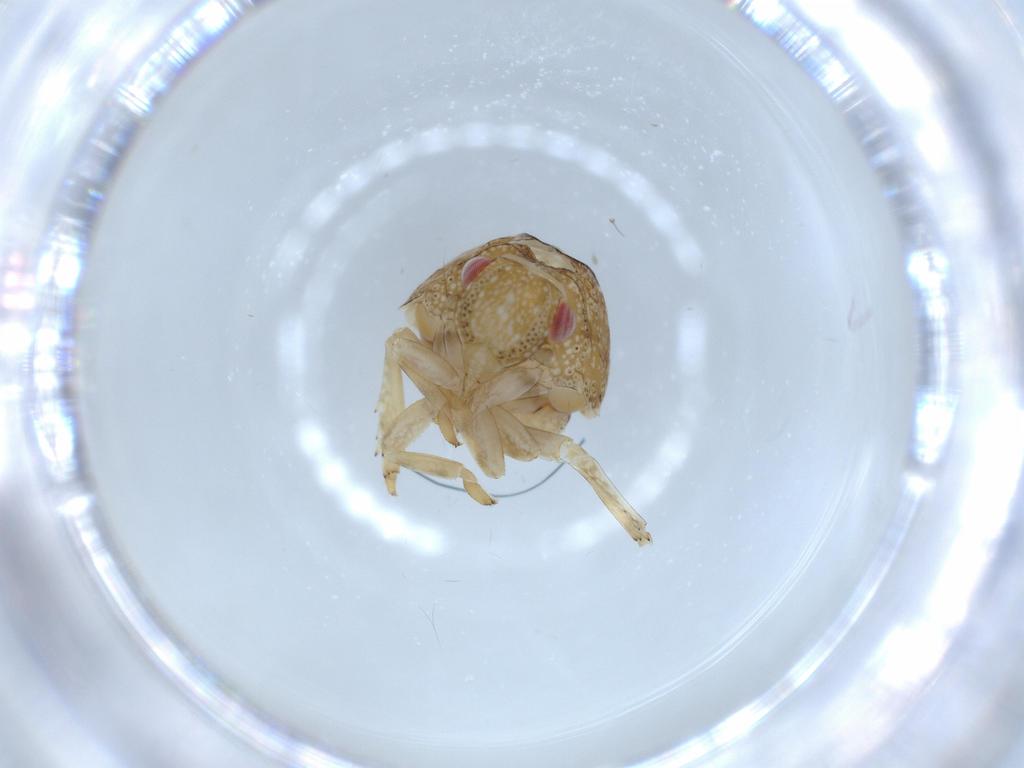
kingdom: Animalia
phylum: Arthropoda
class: Insecta
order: Hemiptera
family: Acanaloniidae
